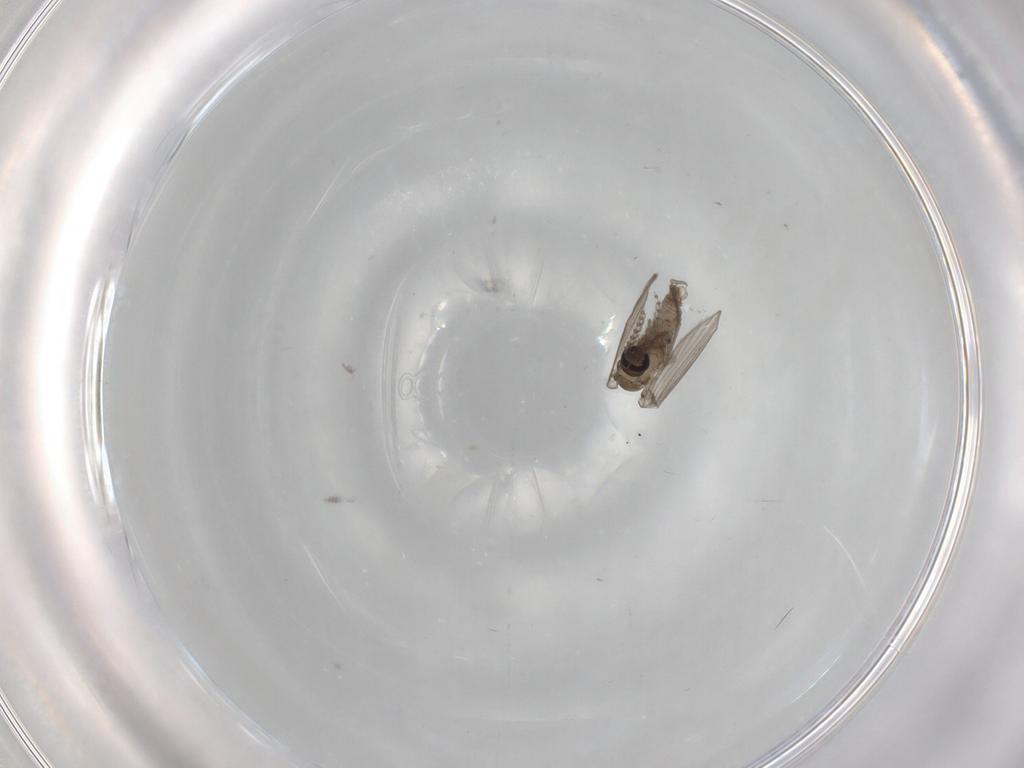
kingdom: Animalia
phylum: Arthropoda
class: Insecta
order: Diptera
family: Psychodidae
